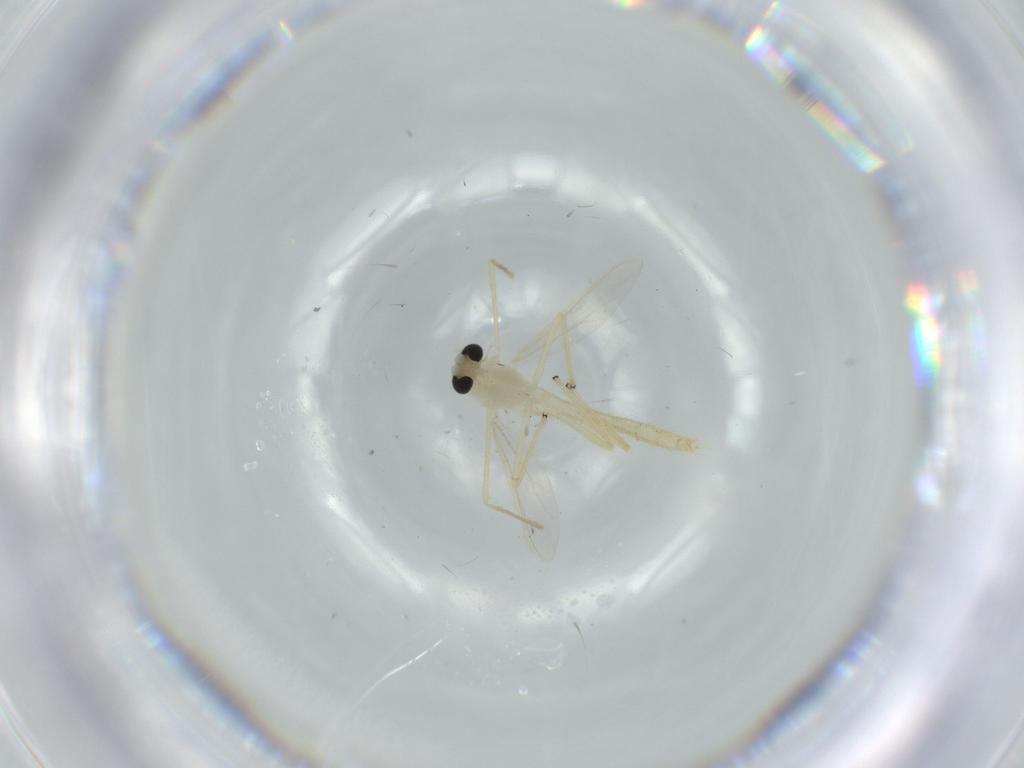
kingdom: Animalia
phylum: Arthropoda
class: Insecta
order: Diptera
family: Chironomidae
